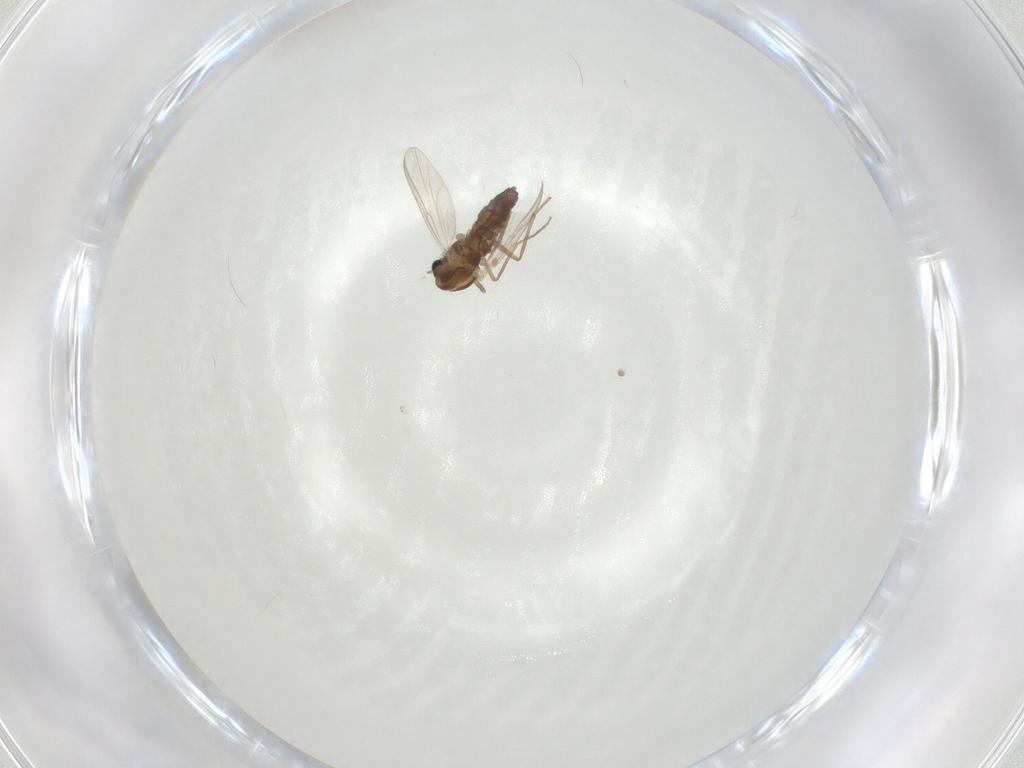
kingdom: Animalia
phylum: Arthropoda
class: Insecta
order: Diptera
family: Chironomidae
